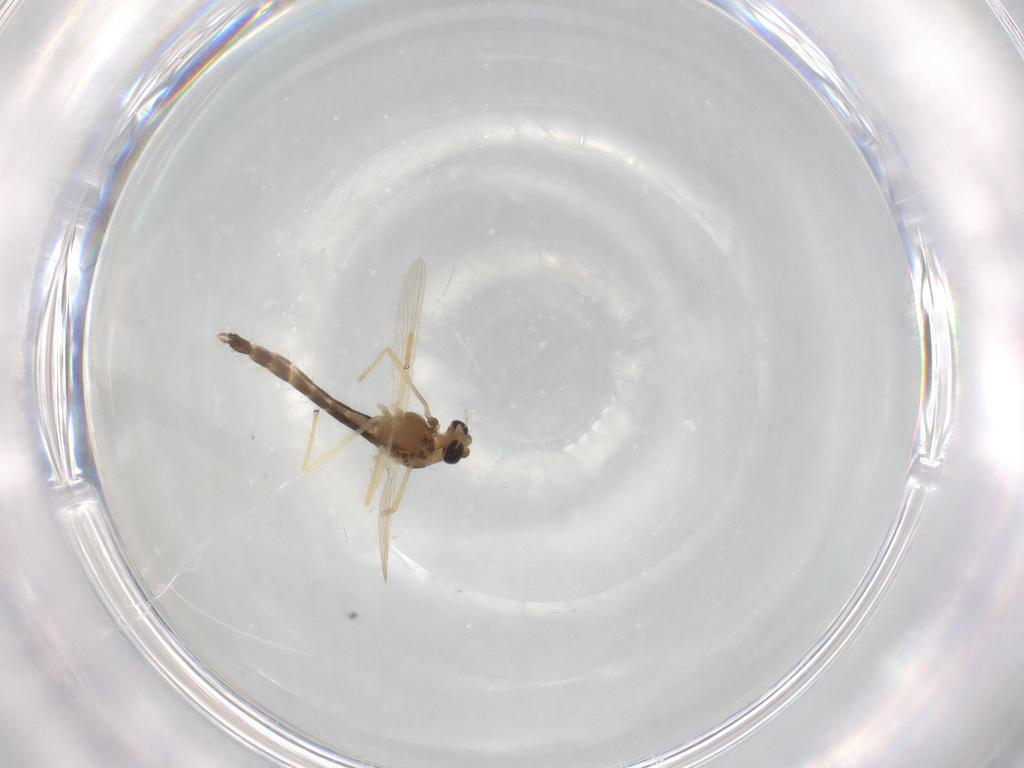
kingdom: Animalia
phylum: Arthropoda
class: Insecta
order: Diptera
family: Chironomidae
